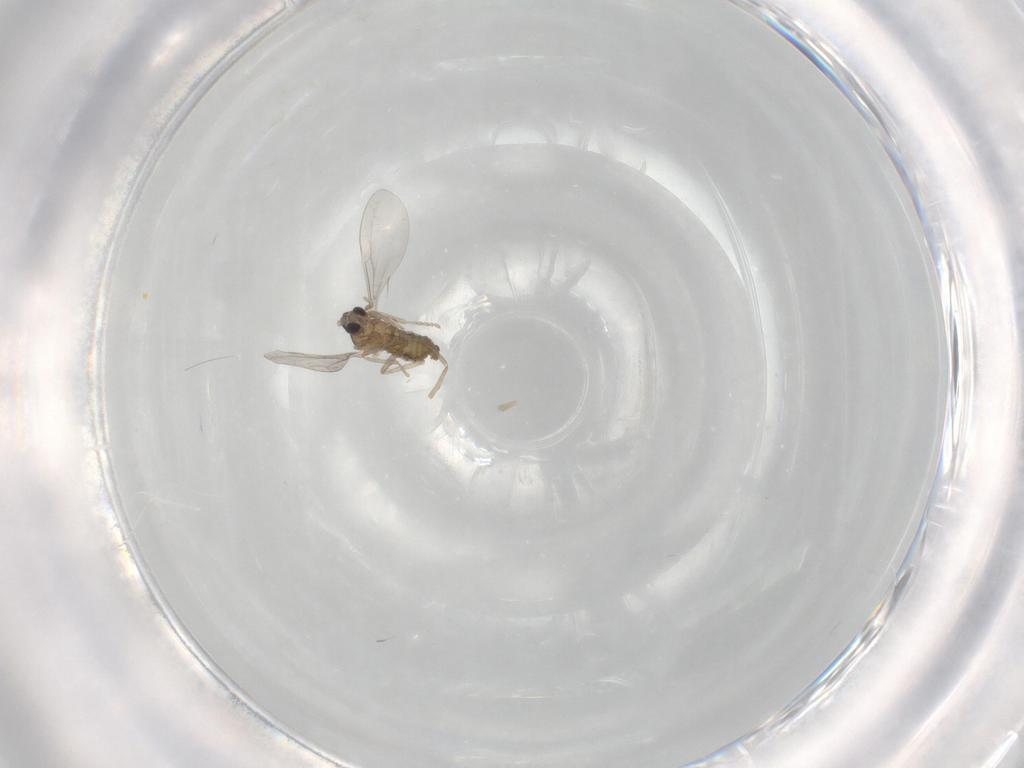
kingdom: Animalia
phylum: Arthropoda
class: Insecta
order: Diptera
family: Cecidomyiidae
